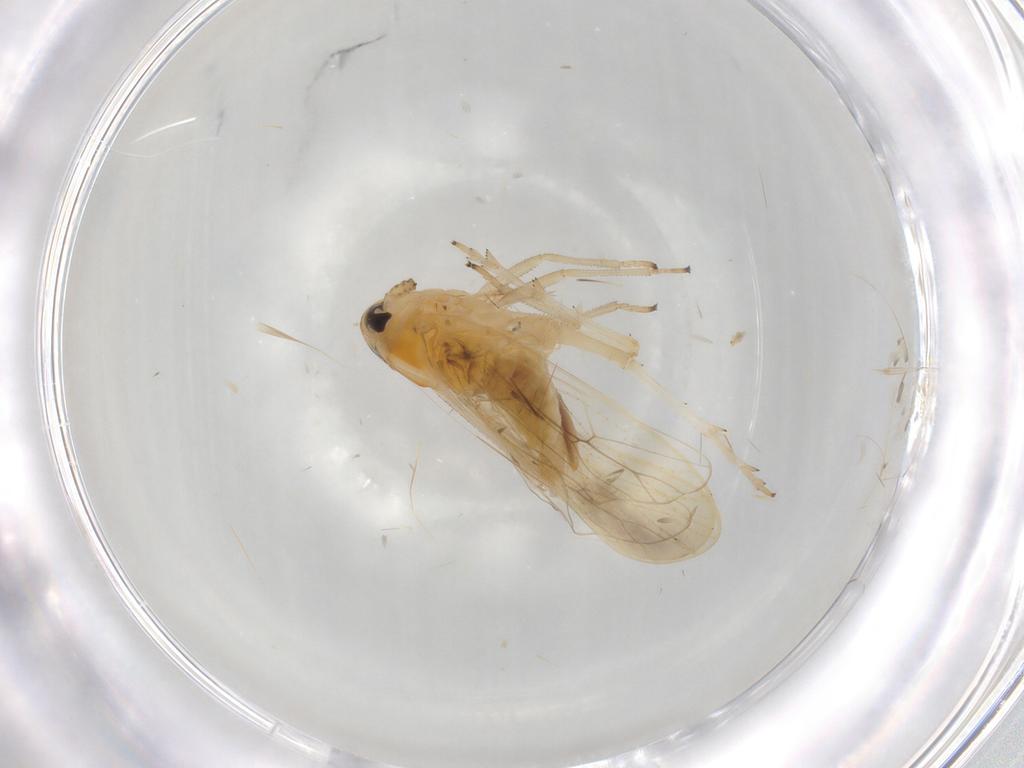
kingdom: Animalia
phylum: Arthropoda
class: Insecta
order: Hemiptera
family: Delphacidae
